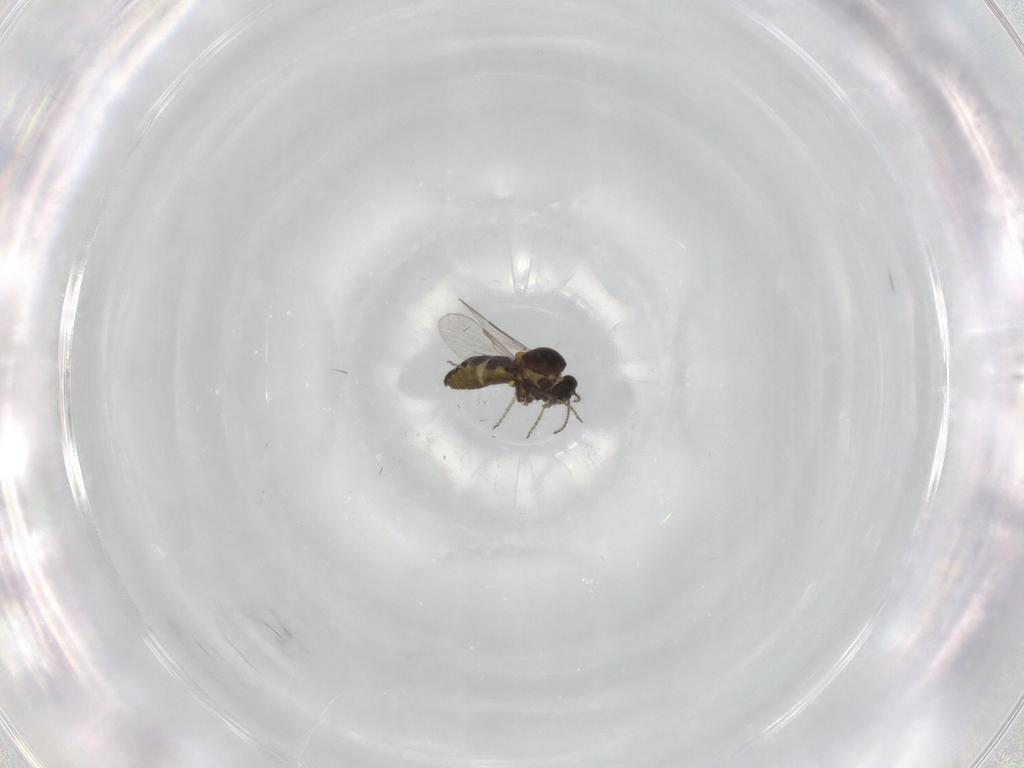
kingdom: Animalia
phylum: Arthropoda
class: Insecta
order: Diptera
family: Ceratopogonidae
